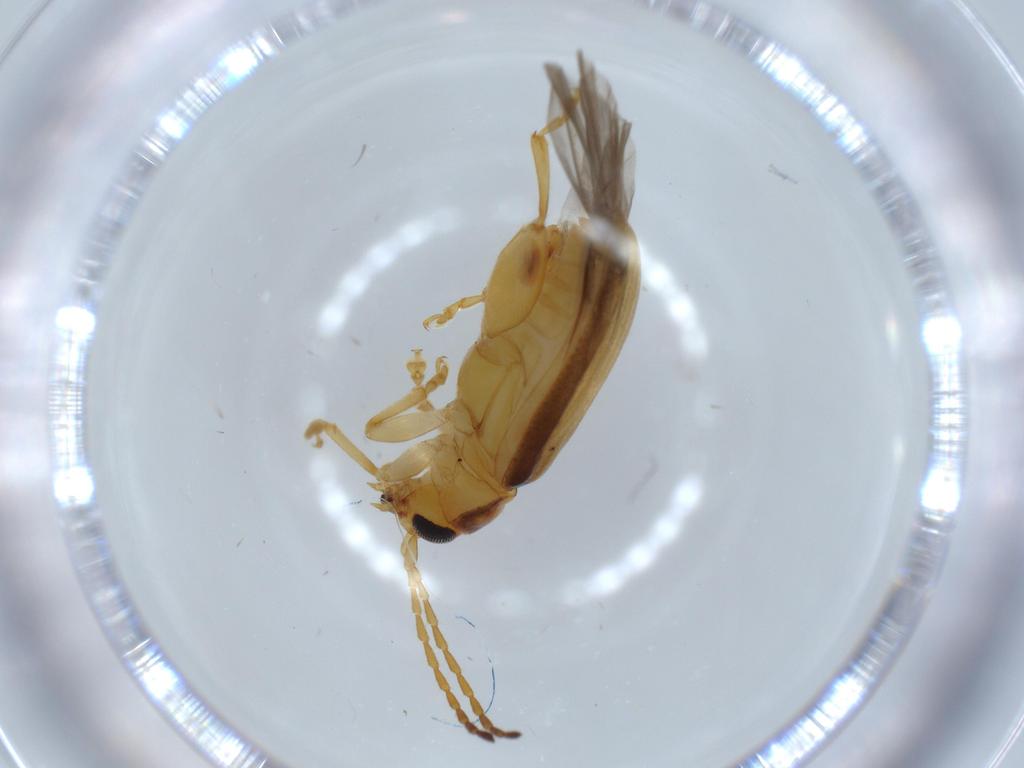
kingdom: Animalia
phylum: Arthropoda
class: Insecta
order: Coleoptera
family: Chrysomelidae
